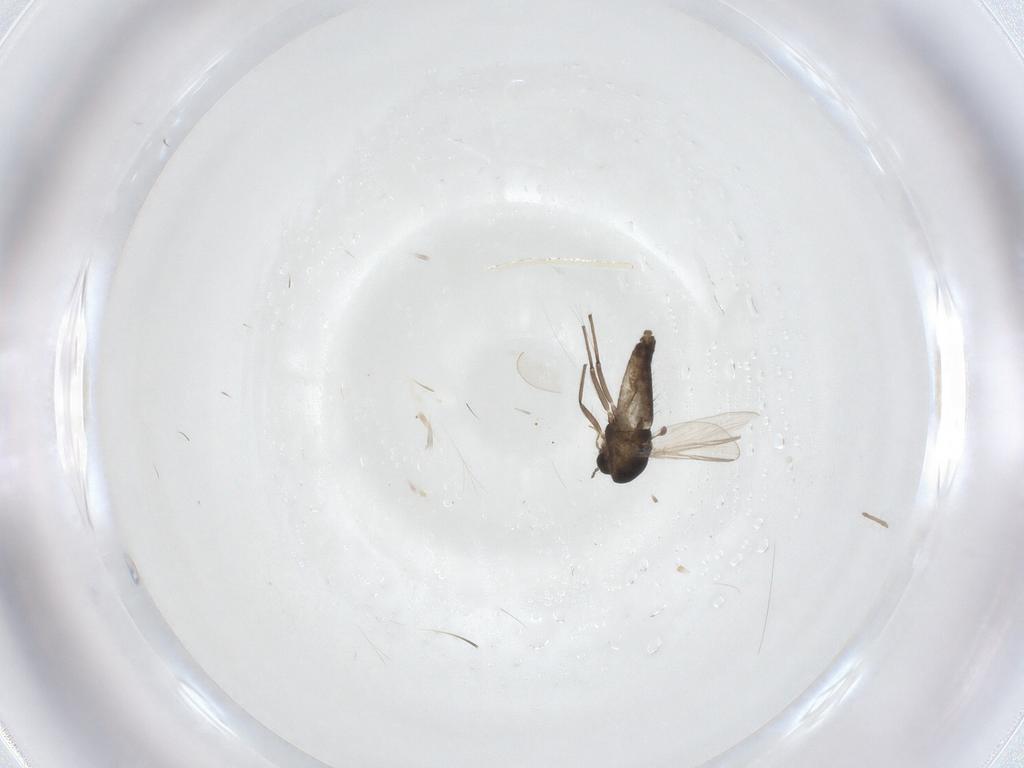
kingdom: Animalia
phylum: Arthropoda
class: Insecta
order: Diptera
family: Chironomidae
